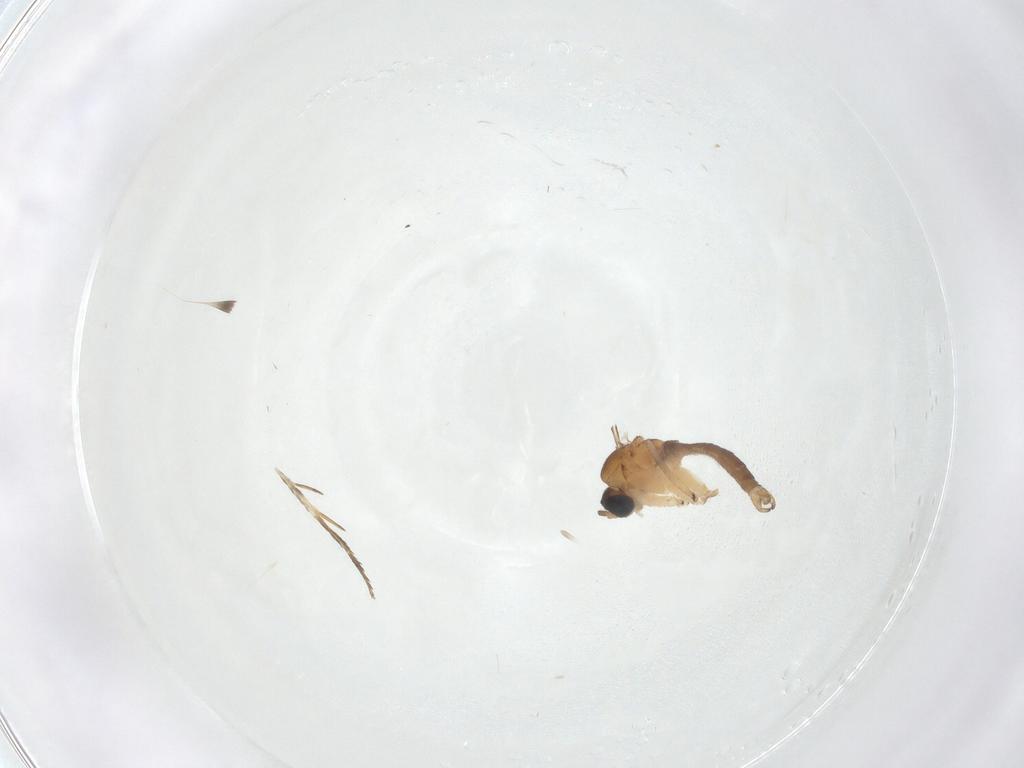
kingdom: Animalia
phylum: Arthropoda
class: Insecta
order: Diptera
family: Sciaridae
